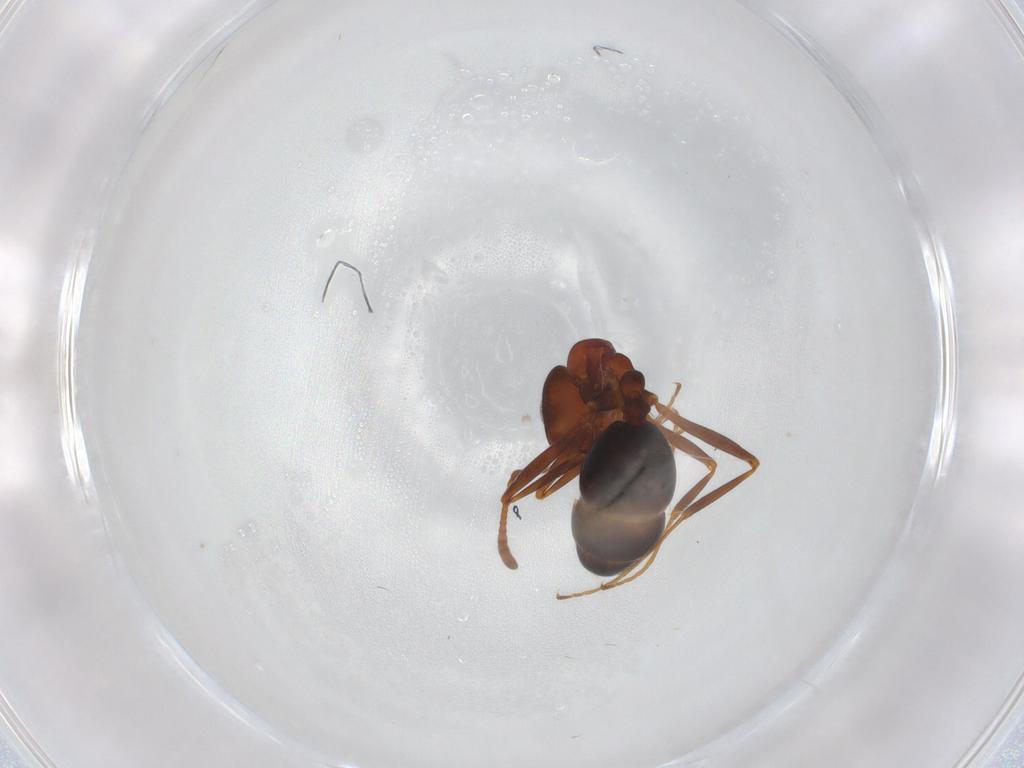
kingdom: Animalia
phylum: Arthropoda
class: Insecta
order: Hymenoptera
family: Formicidae
